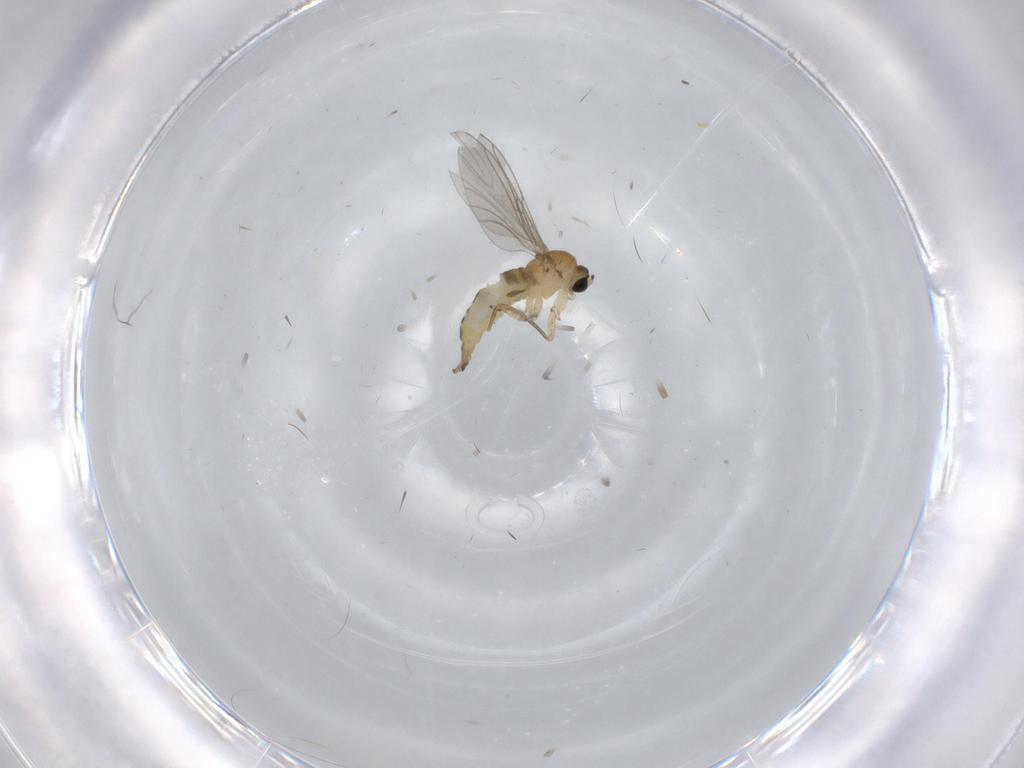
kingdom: Animalia
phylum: Arthropoda
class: Insecta
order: Diptera
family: Sciaridae
